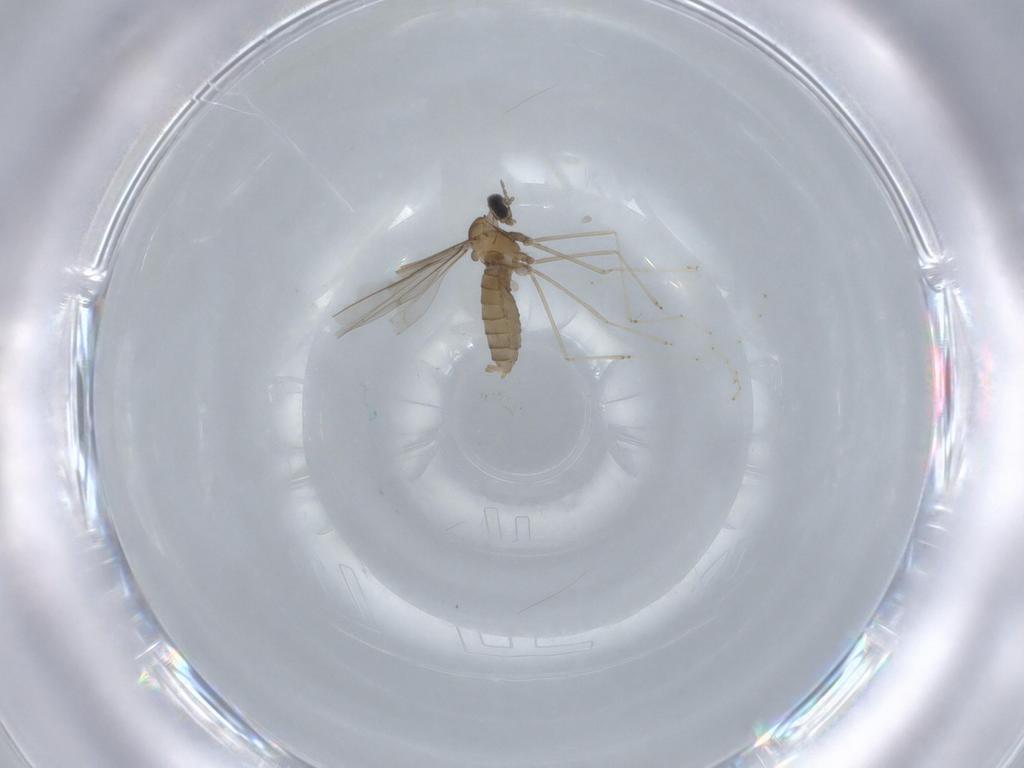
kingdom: Animalia
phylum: Arthropoda
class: Insecta
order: Diptera
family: Cecidomyiidae
